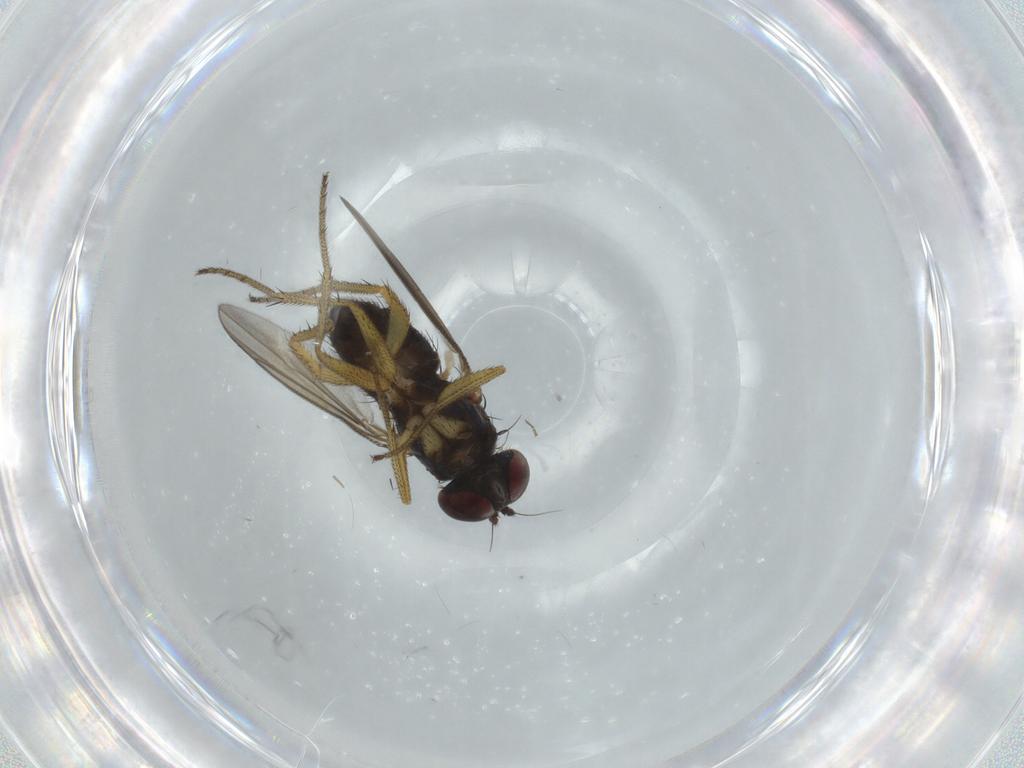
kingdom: Animalia
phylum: Arthropoda
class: Insecta
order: Diptera
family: Dolichopodidae
